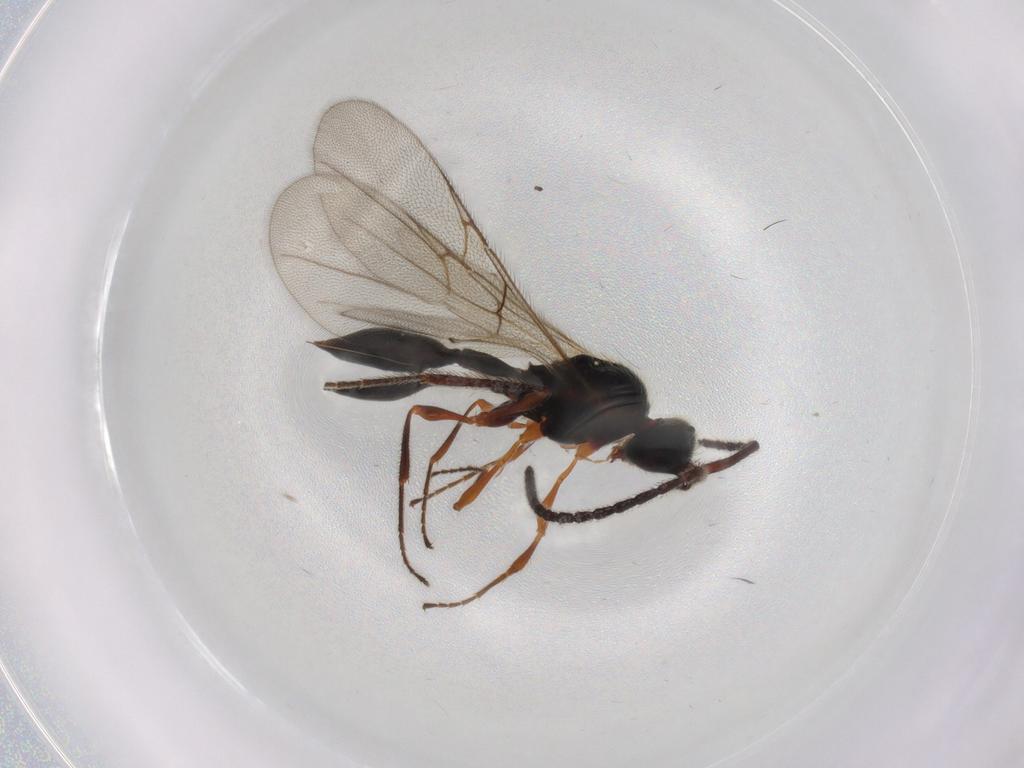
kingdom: Animalia
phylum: Arthropoda
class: Insecta
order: Hymenoptera
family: Diapriidae
